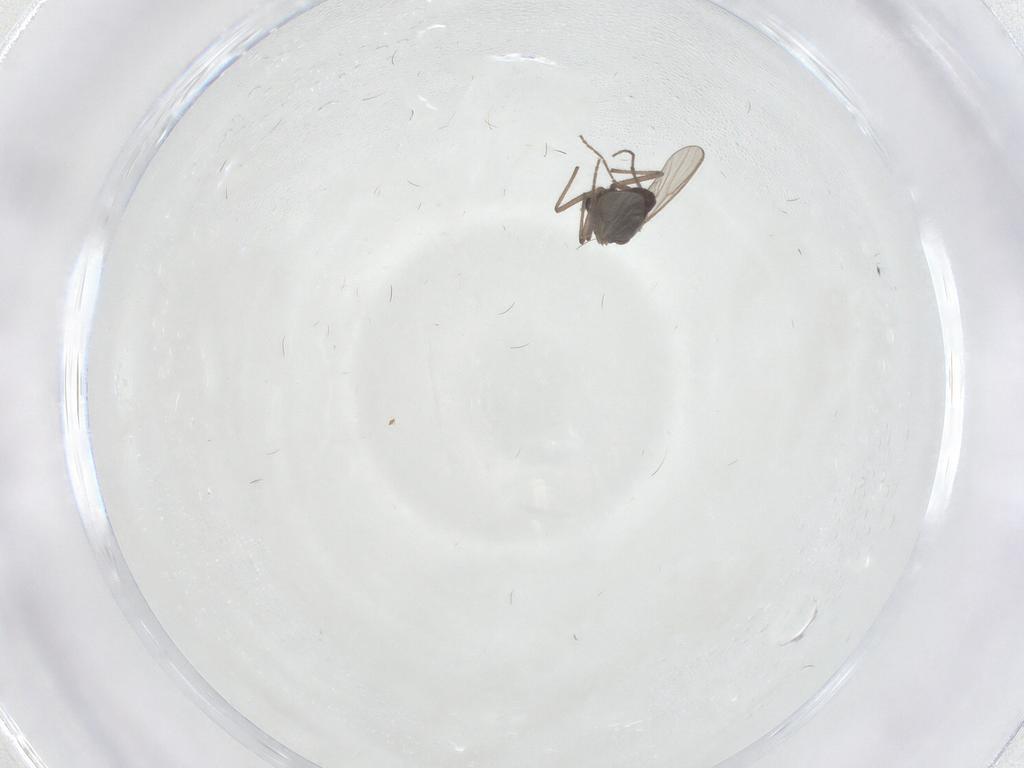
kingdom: Animalia
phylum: Arthropoda
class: Insecta
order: Diptera
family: Chironomidae
